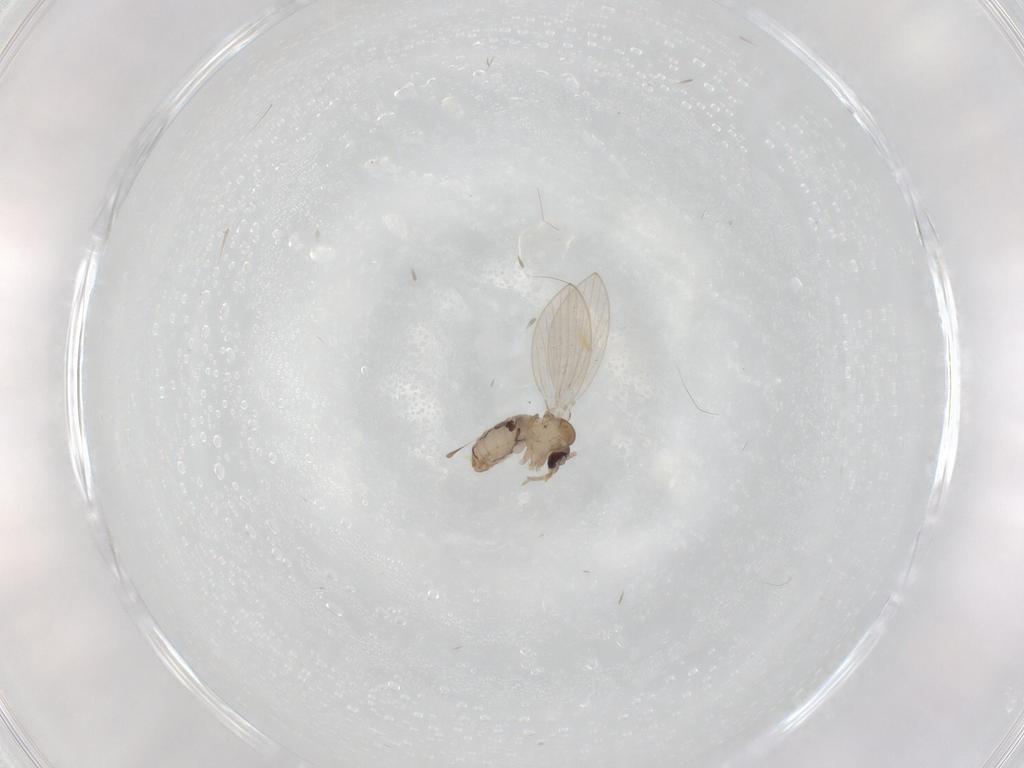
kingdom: Animalia
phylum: Arthropoda
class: Insecta
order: Diptera
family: Psychodidae
